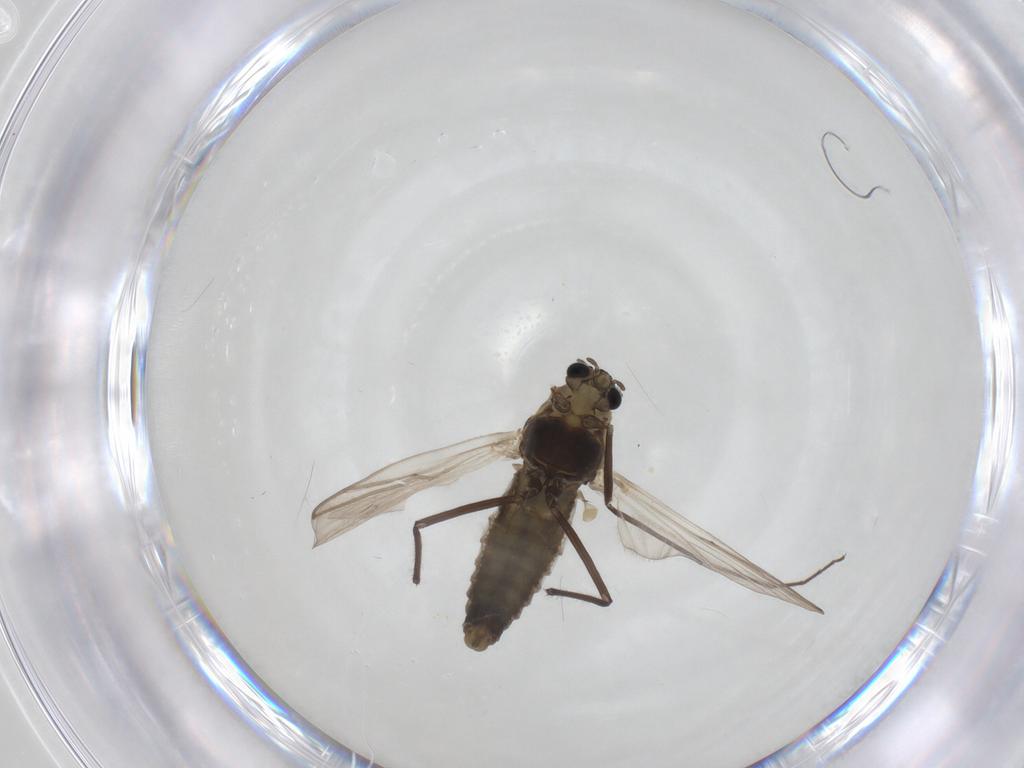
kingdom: Animalia
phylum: Arthropoda
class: Insecta
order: Diptera
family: Chironomidae
